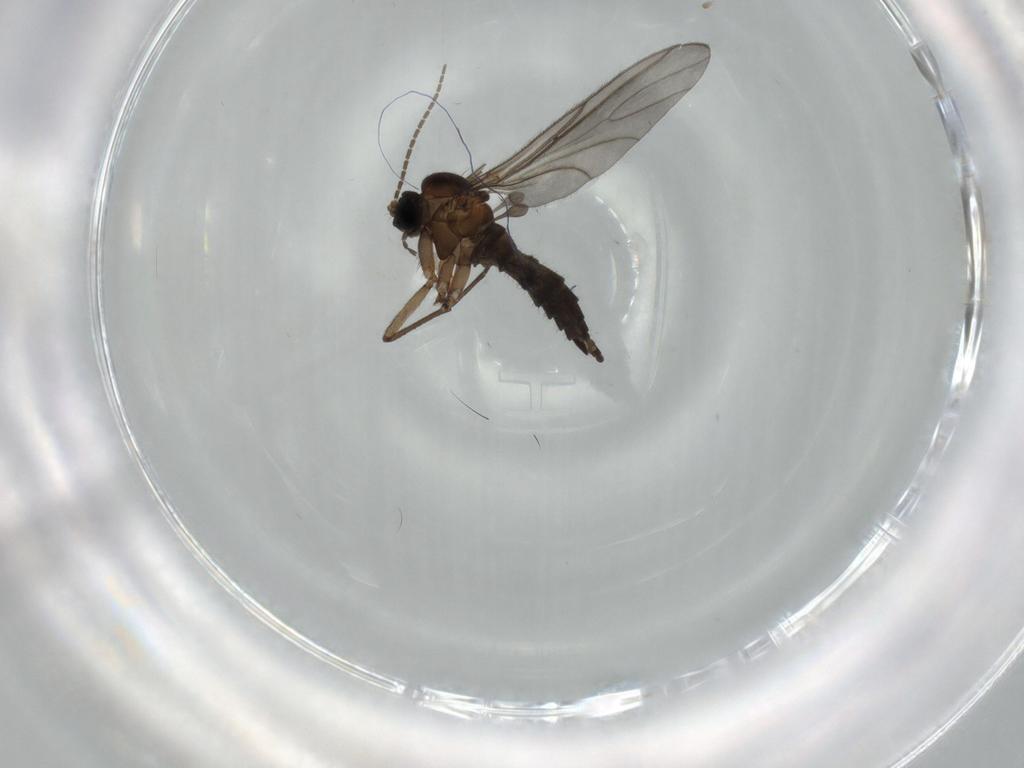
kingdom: Animalia
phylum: Arthropoda
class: Insecta
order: Diptera
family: Sciaridae
